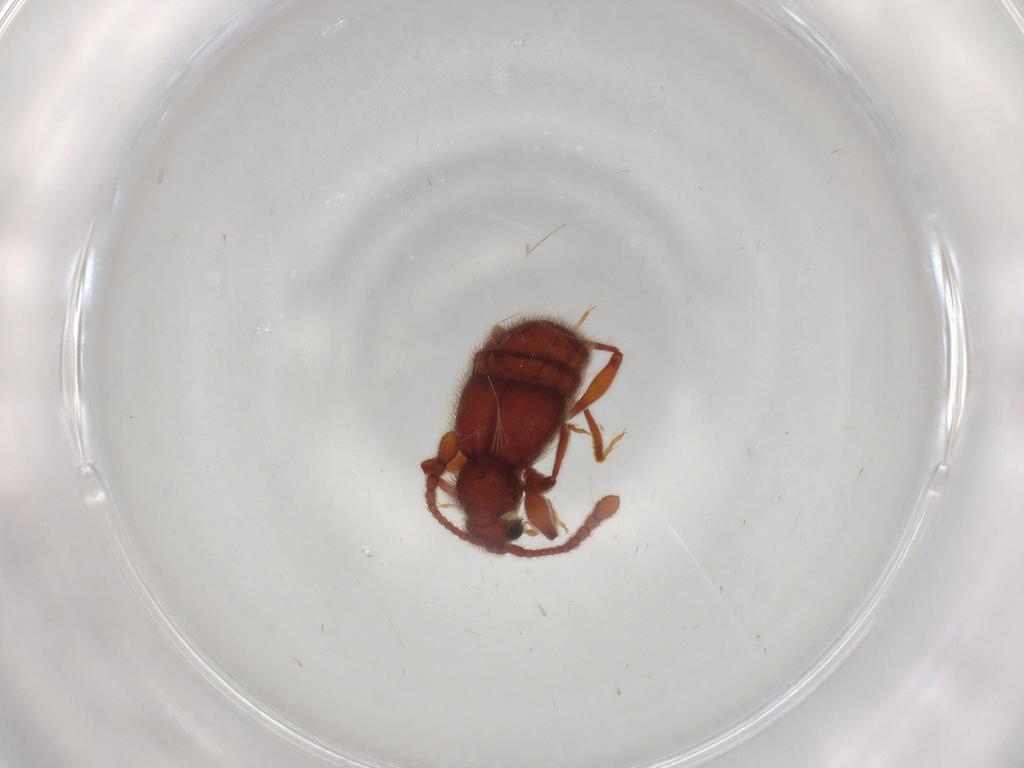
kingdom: Animalia
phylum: Arthropoda
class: Insecta
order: Coleoptera
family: Staphylinidae
